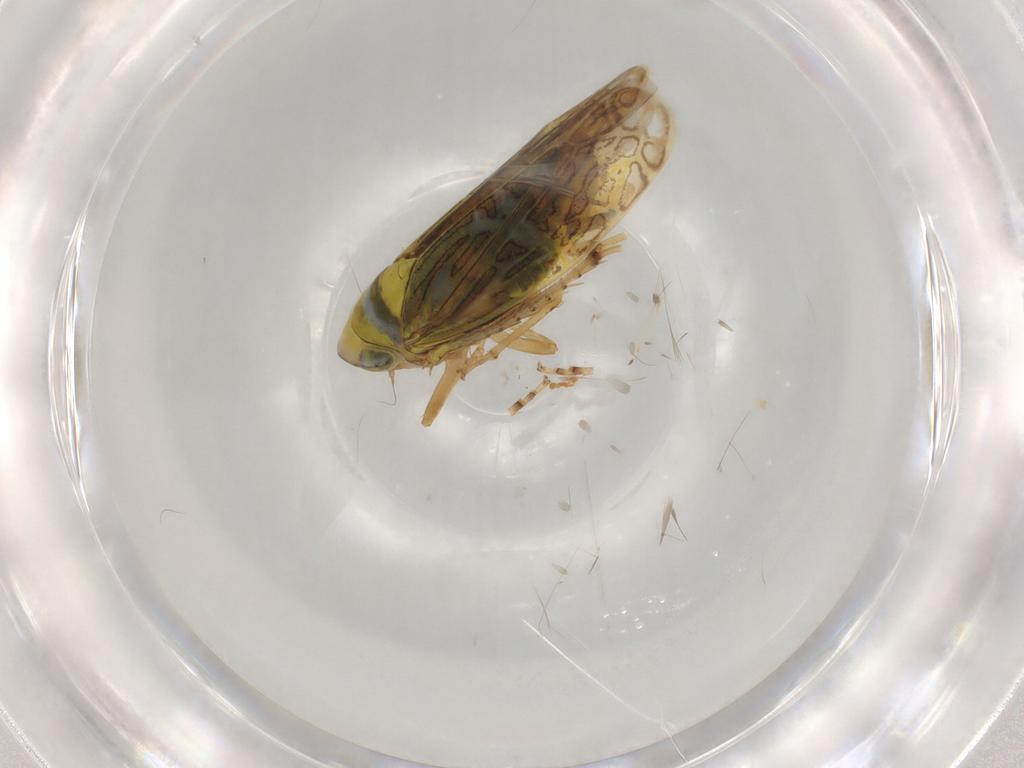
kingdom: Animalia
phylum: Arthropoda
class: Insecta
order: Hemiptera
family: Cicadellidae
